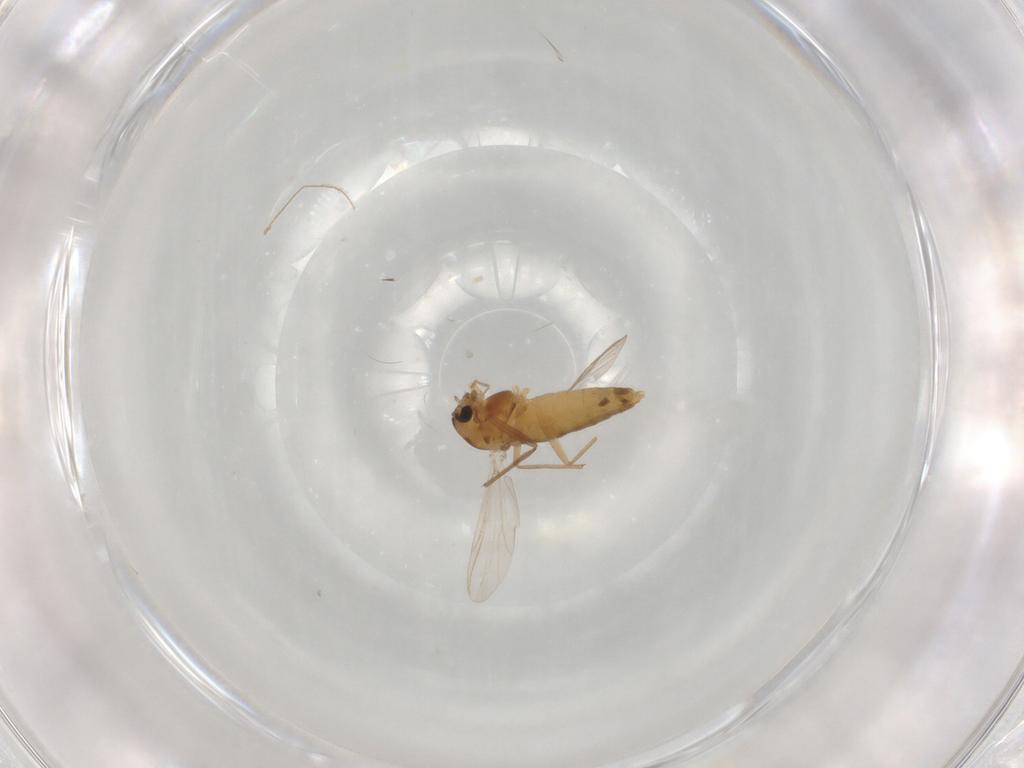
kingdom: Animalia
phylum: Arthropoda
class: Insecta
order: Diptera
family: Chironomidae
